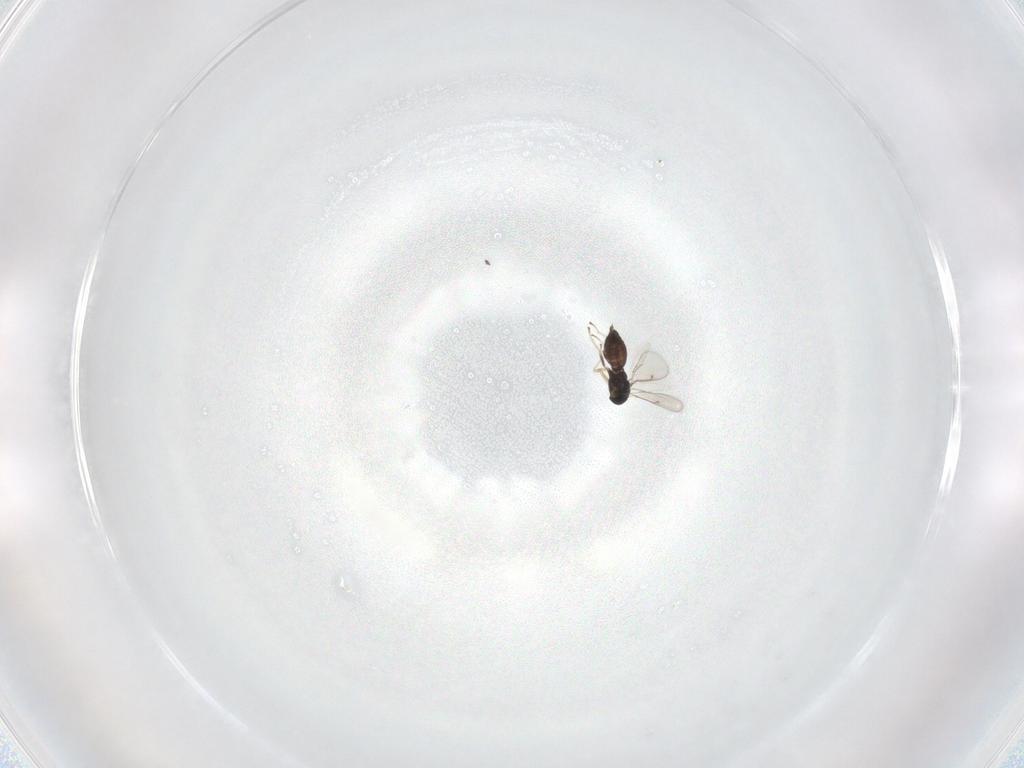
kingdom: Animalia
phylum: Arthropoda
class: Insecta
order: Hymenoptera
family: Eulophidae
